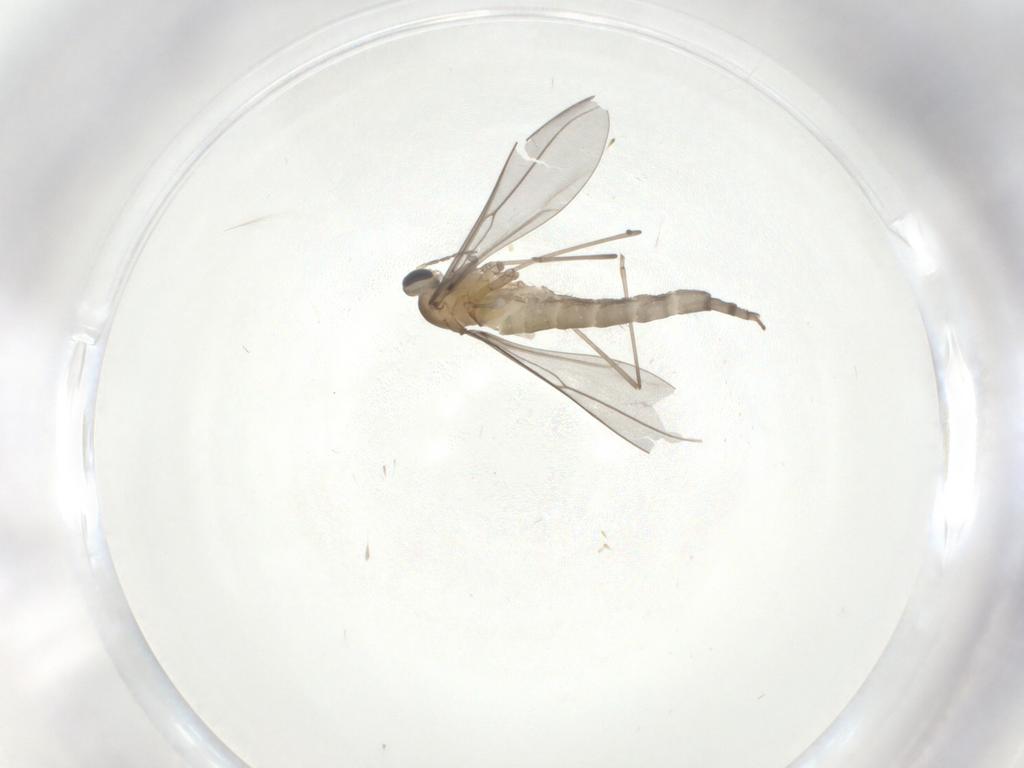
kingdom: Animalia
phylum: Arthropoda
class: Insecta
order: Diptera
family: Cecidomyiidae
